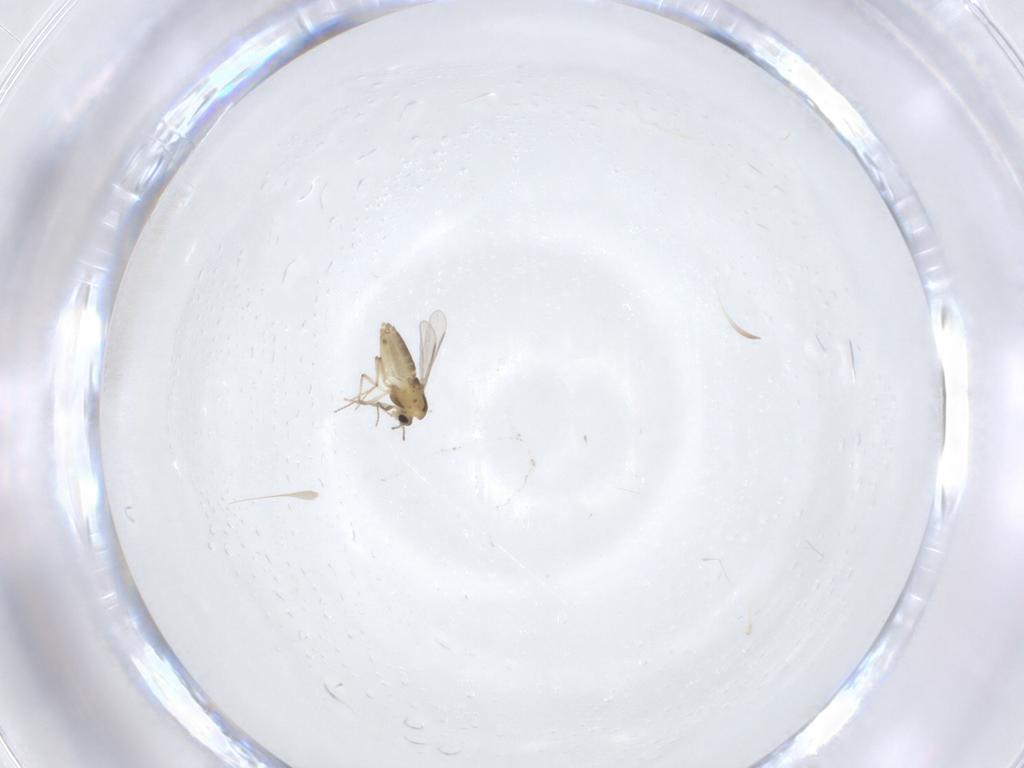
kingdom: Animalia
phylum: Arthropoda
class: Insecta
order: Diptera
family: Chironomidae
